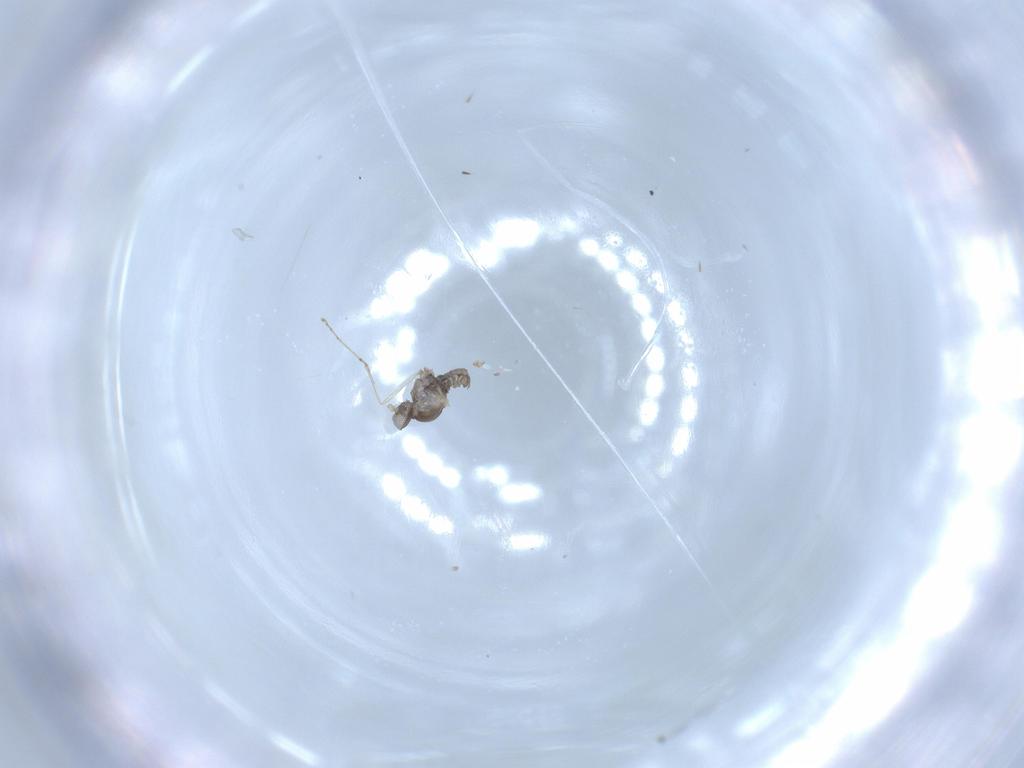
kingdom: Animalia
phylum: Arthropoda
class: Insecta
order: Diptera
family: Cecidomyiidae
